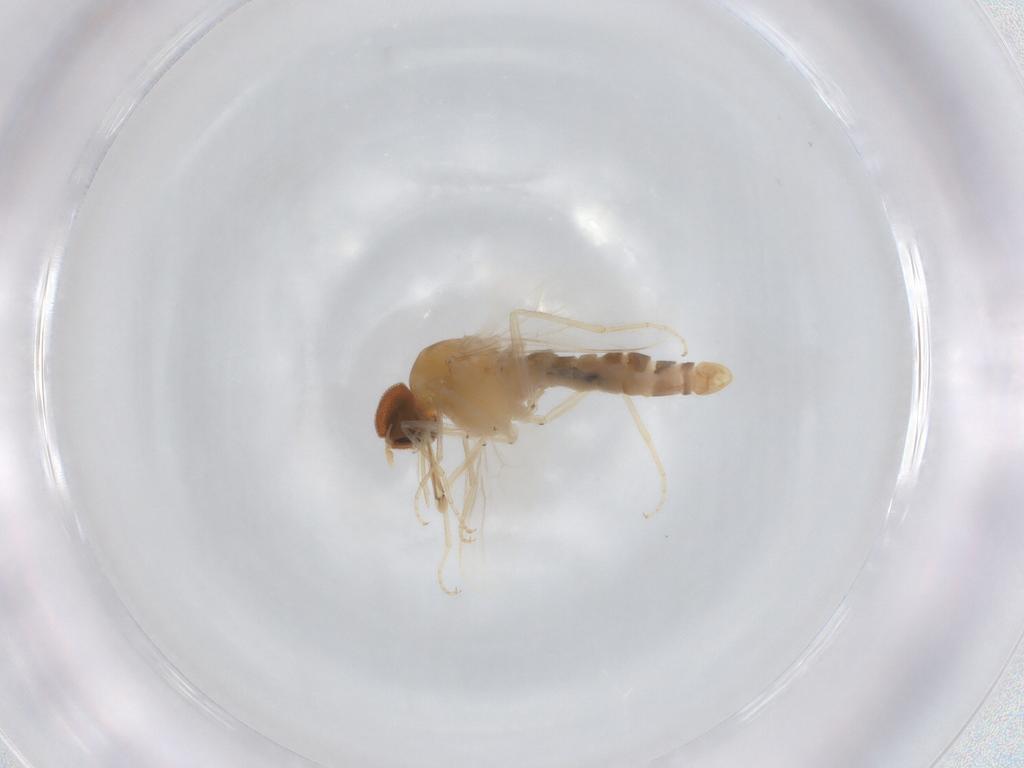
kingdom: Animalia
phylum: Arthropoda
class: Insecta
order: Diptera
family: Scenopinidae
